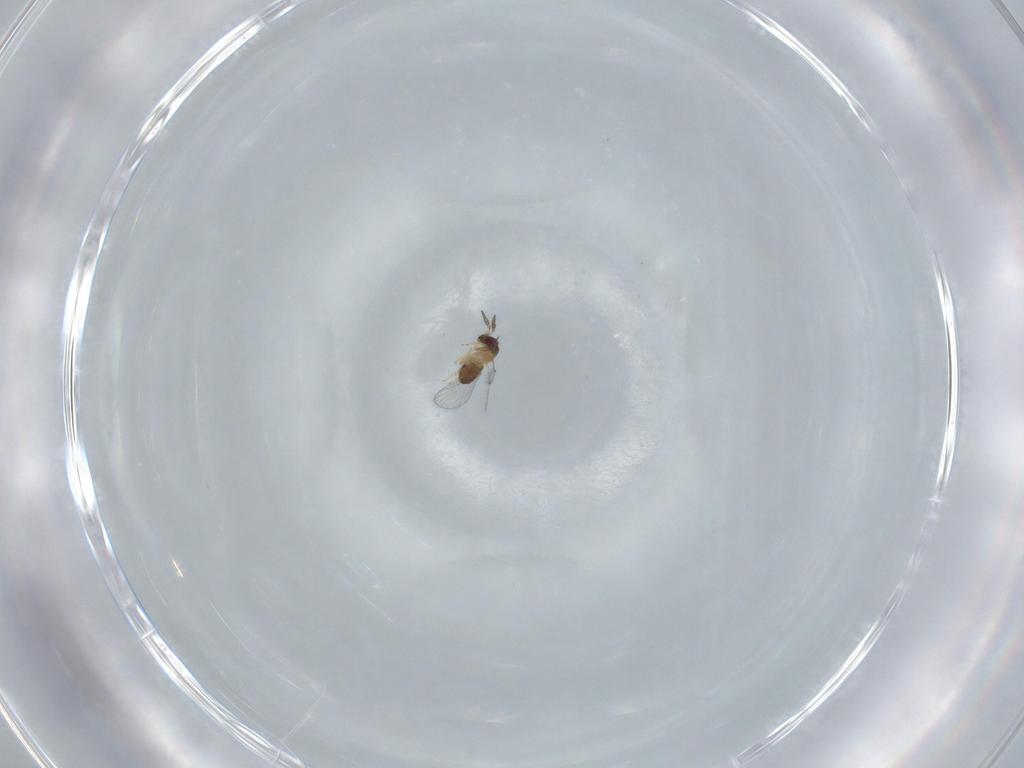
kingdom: Animalia
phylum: Arthropoda
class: Insecta
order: Hymenoptera
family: Trichogrammatidae
